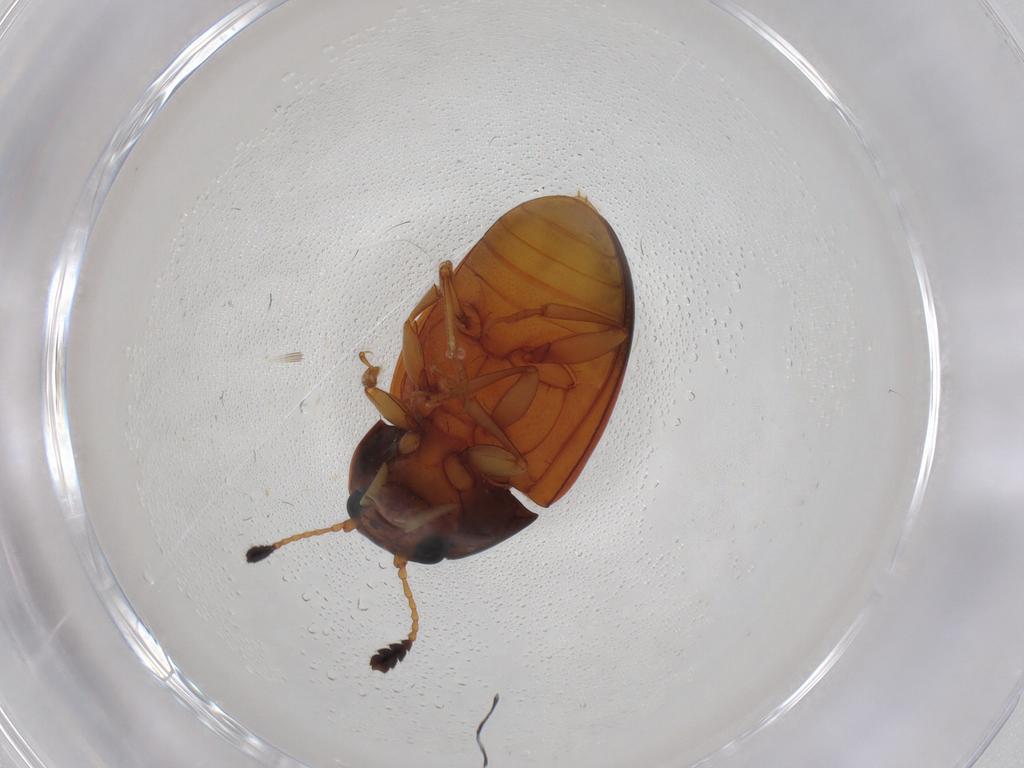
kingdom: Animalia
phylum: Arthropoda
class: Insecta
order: Coleoptera
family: Erotylidae
